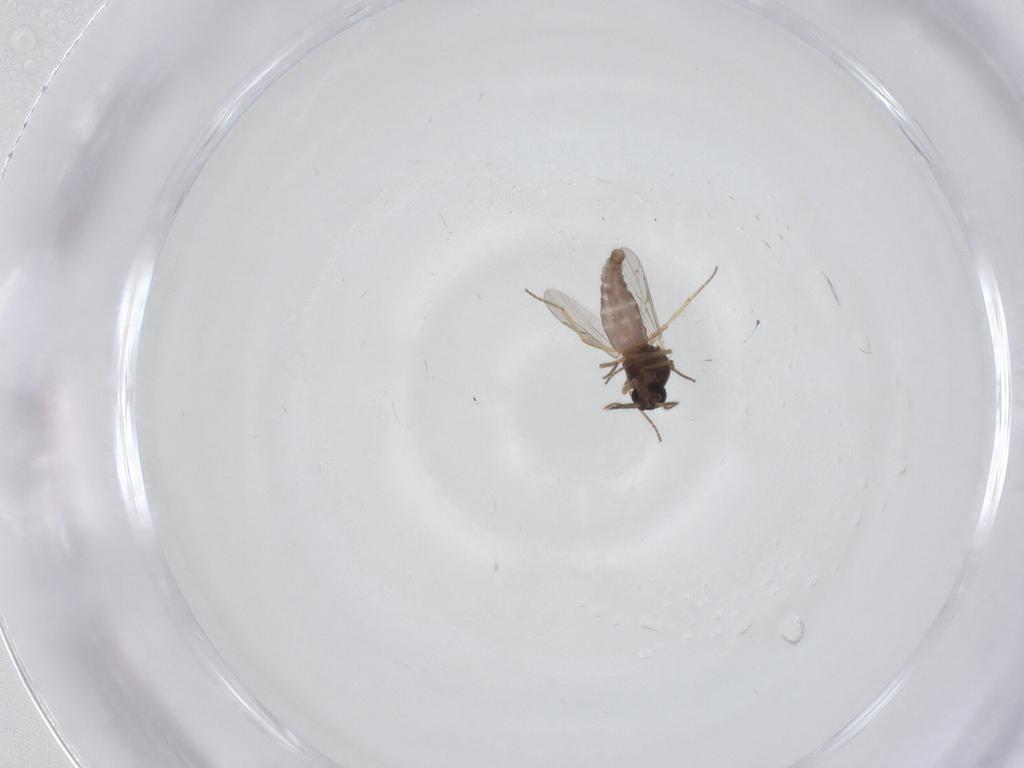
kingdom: Animalia
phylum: Arthropoda
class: Insecta
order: Diptera
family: Ceratopogonidae
